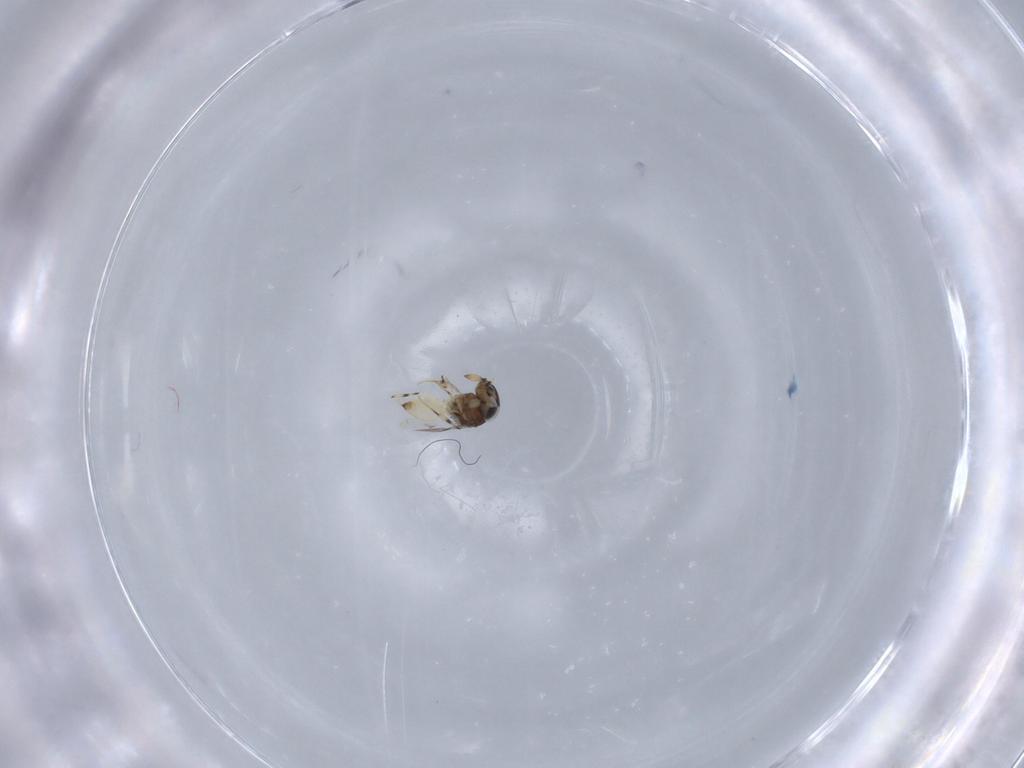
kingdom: Animalia
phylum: Arthropoda
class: Insecta
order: Hymenoptera
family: Scelionidae
